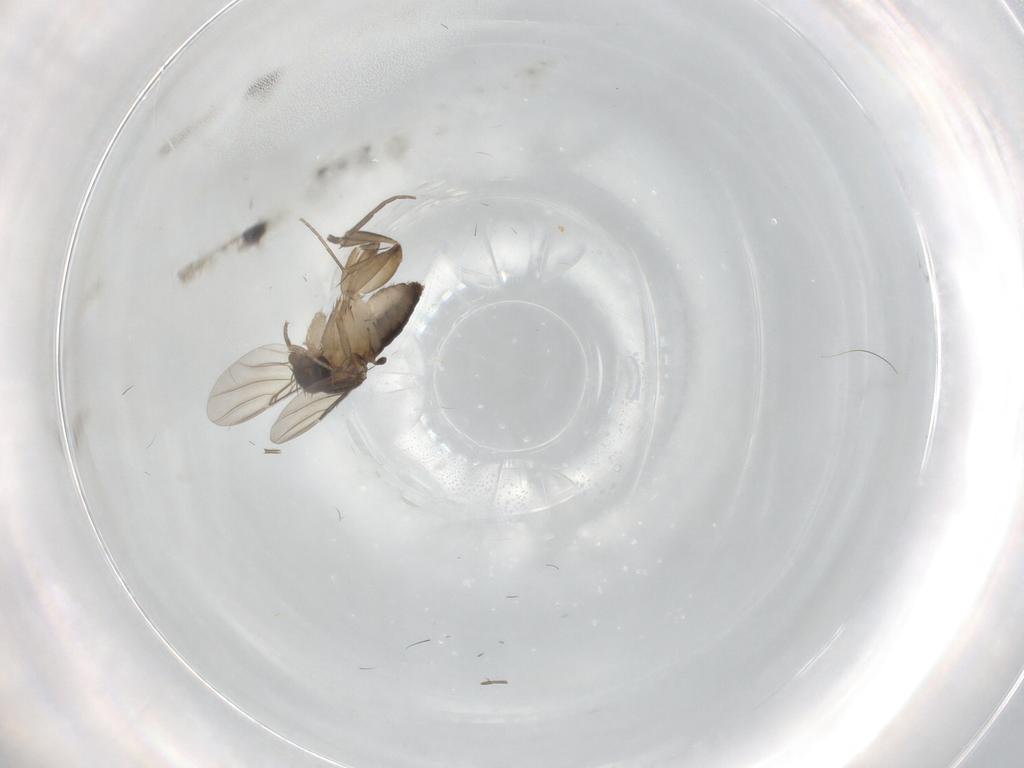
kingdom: Animalia
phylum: Arthropoda
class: Insecta
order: Diptera
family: Phoridae
